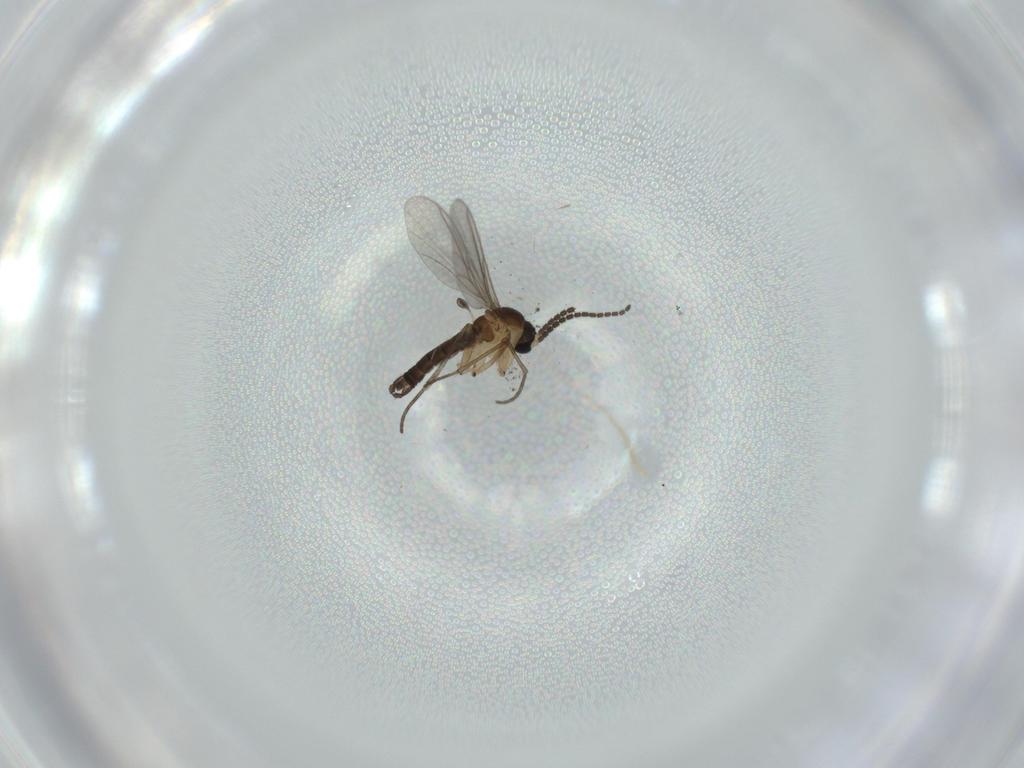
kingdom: Animalia
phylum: Arthropoda
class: Insecta
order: Diptera
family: Sciaridae
